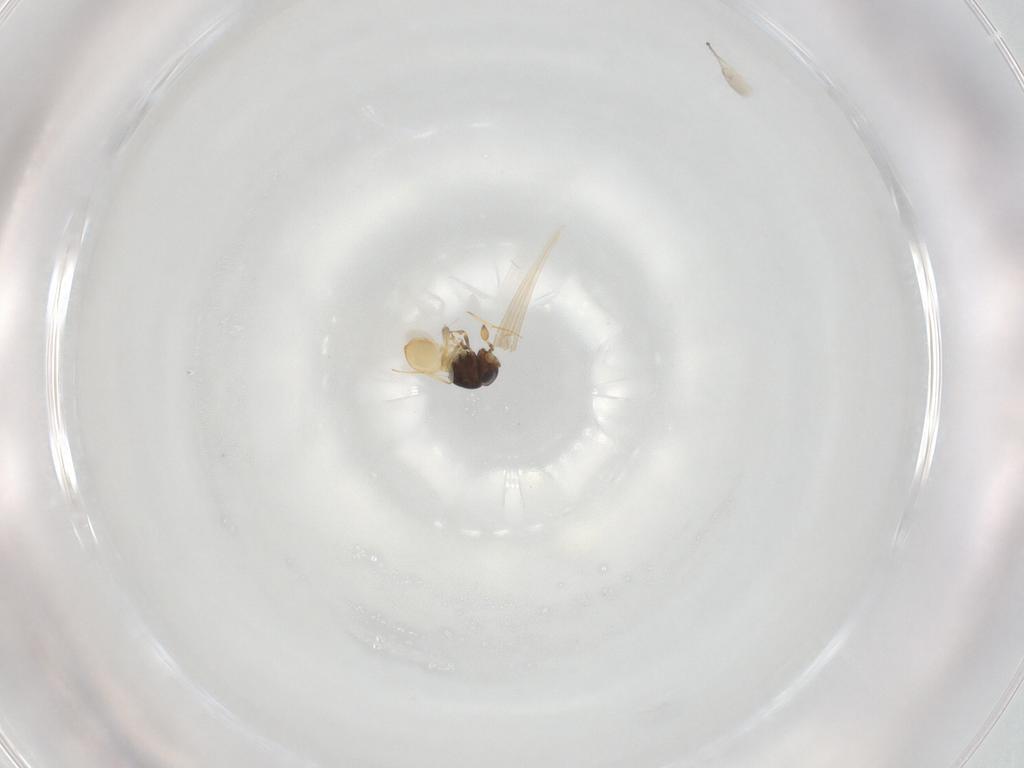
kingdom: Animalia
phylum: Arthropoda
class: Insecta
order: Hymenoptera
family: Scelionidae
